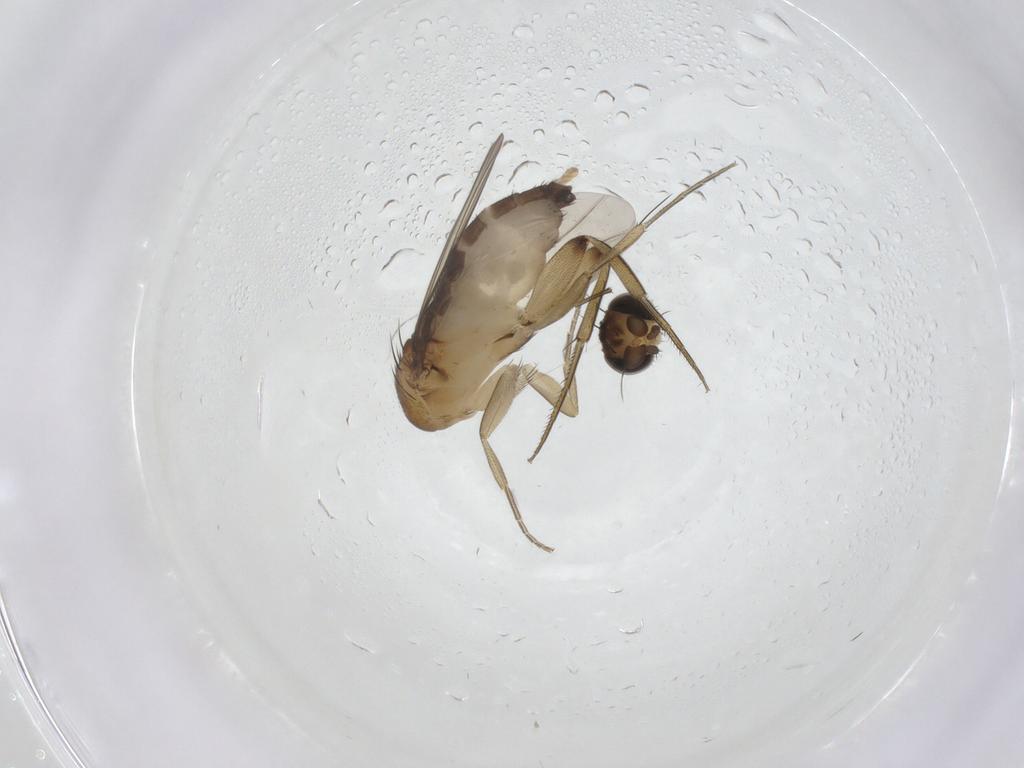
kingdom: Animalia
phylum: Arthropoda
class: Insecta
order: Diptera
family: Phoridae
